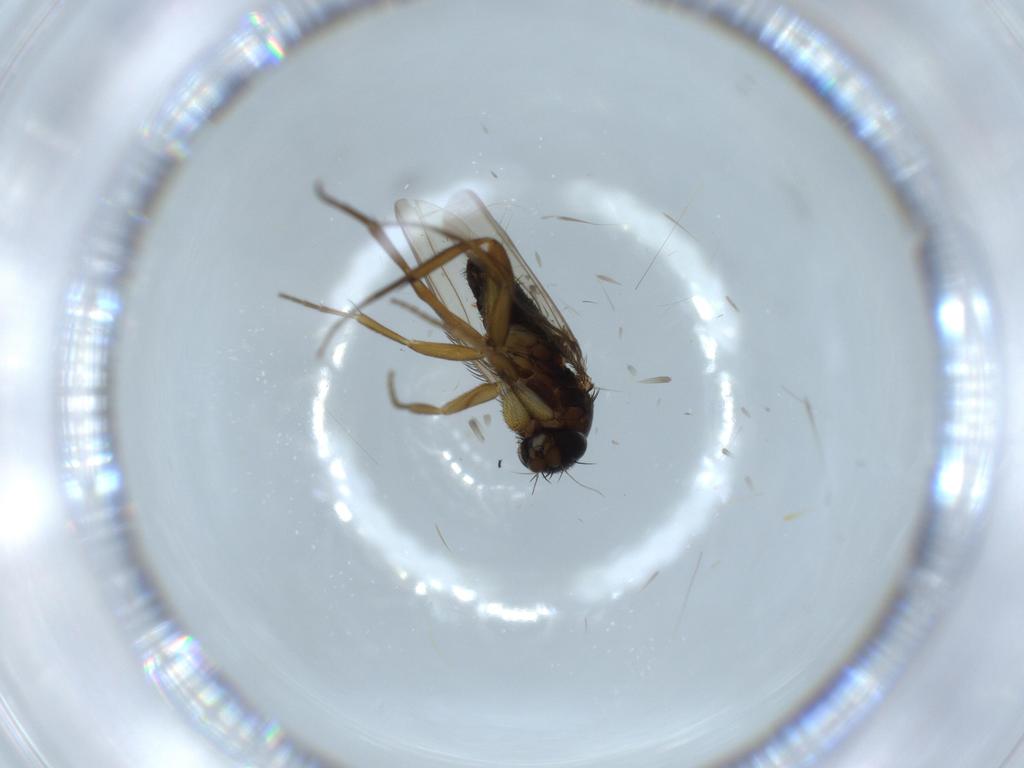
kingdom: Animalia
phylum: Arthropoda
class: Insecta
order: Diptera
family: Phoridae
